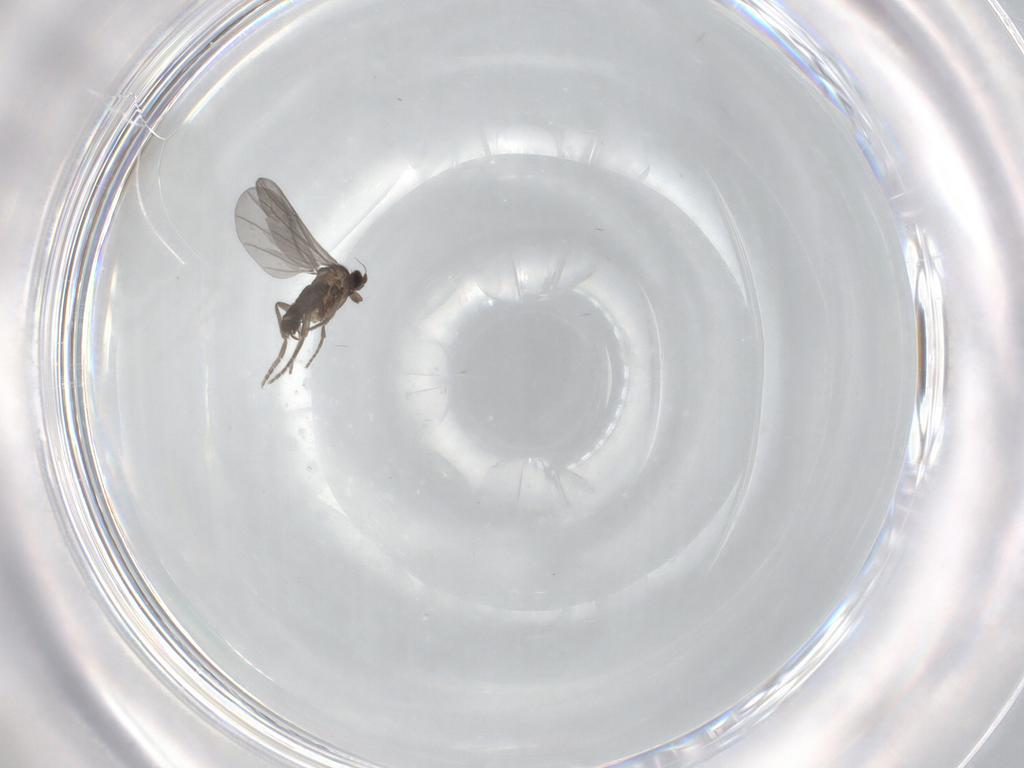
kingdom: Animalia
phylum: Arthropoda
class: Insecta
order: Diptera
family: Phoridae
